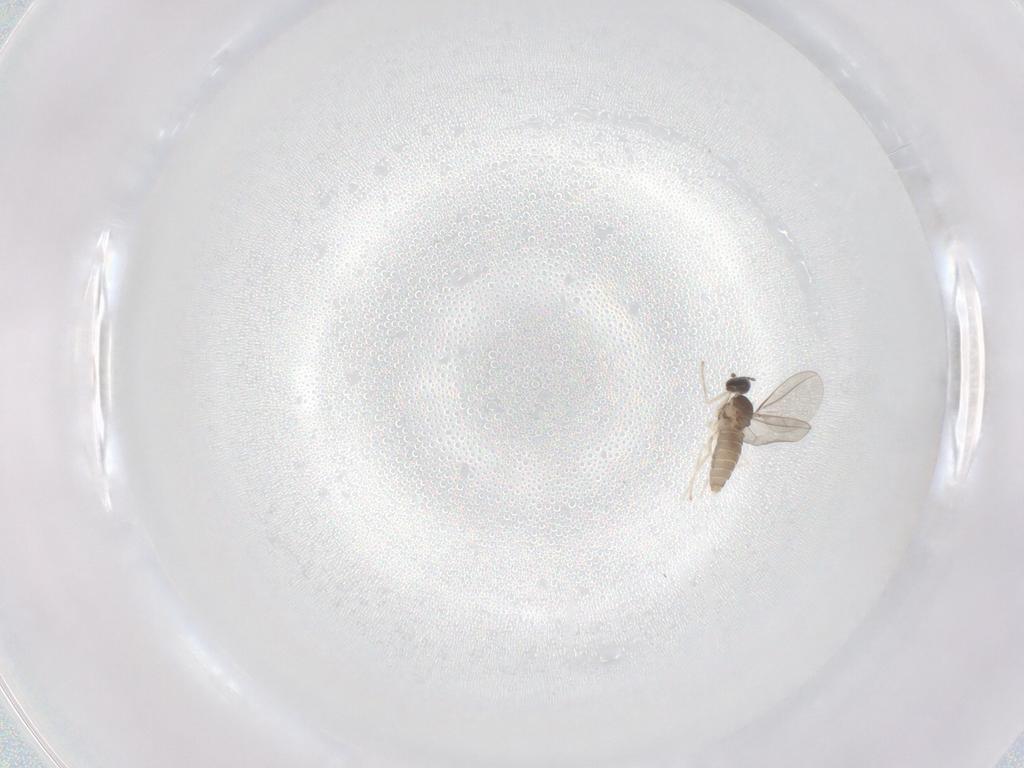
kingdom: Animalia
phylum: Arthropoda
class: Insecta
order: Diptera
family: Cecidomyiidae
